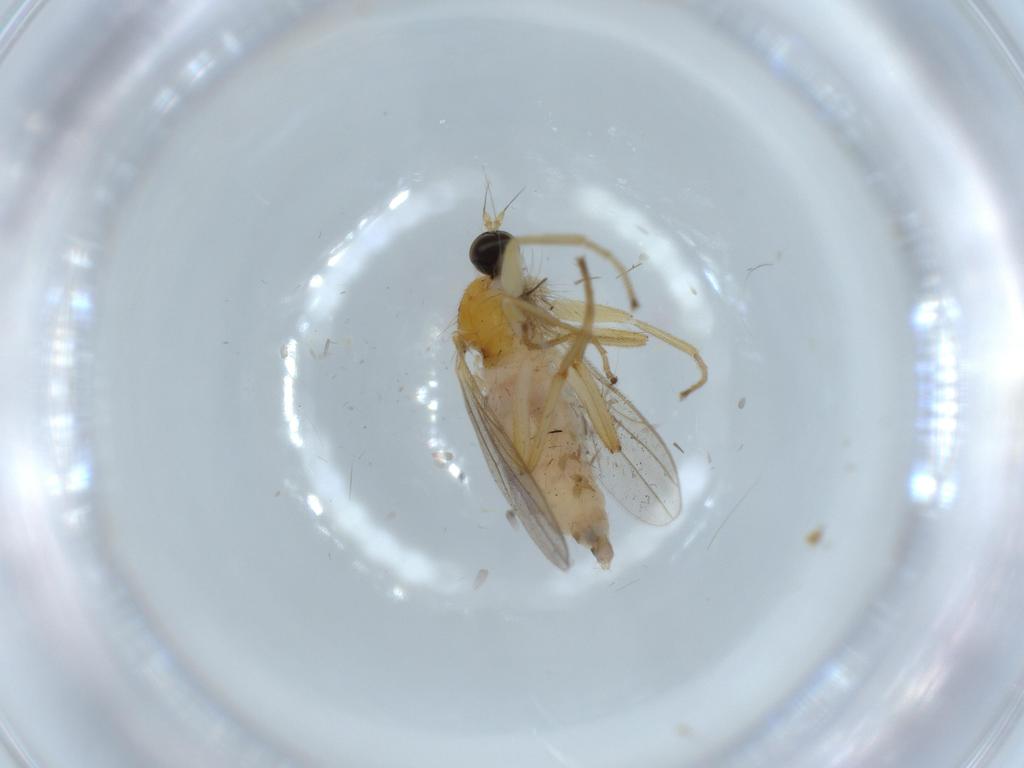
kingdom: Animalia
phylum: Arthropoda
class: Insecta
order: Diptera
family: Hybotidae
